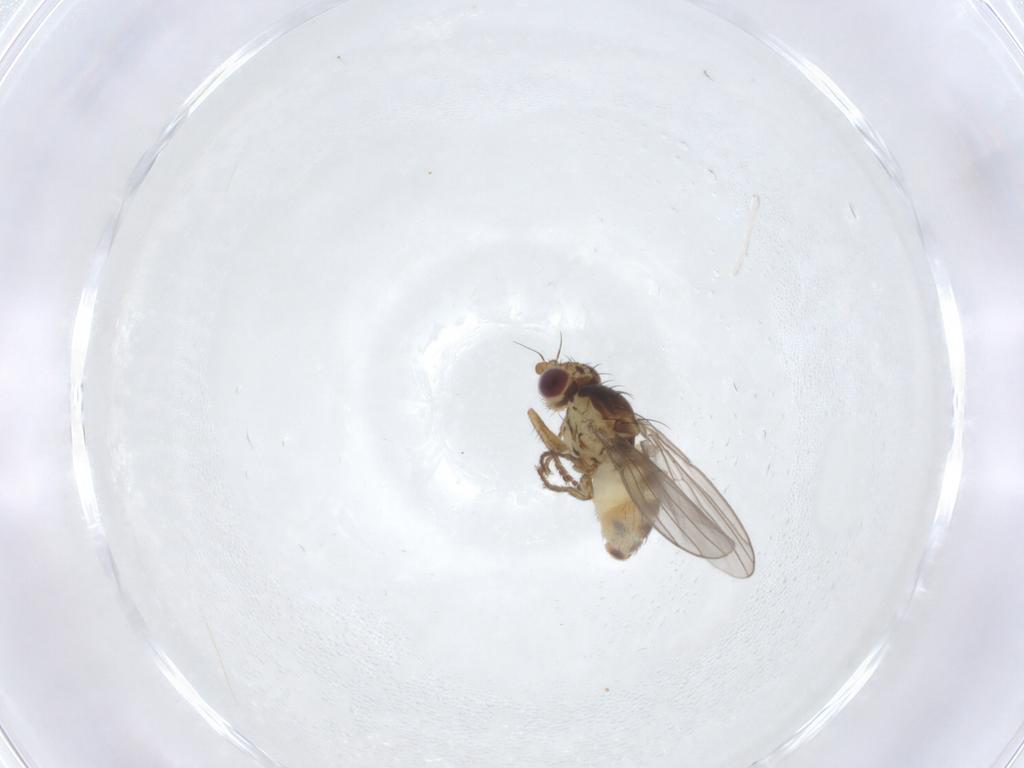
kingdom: Animalia
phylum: Arthropoda
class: Insecta
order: Diptera
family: Agromyzidae
